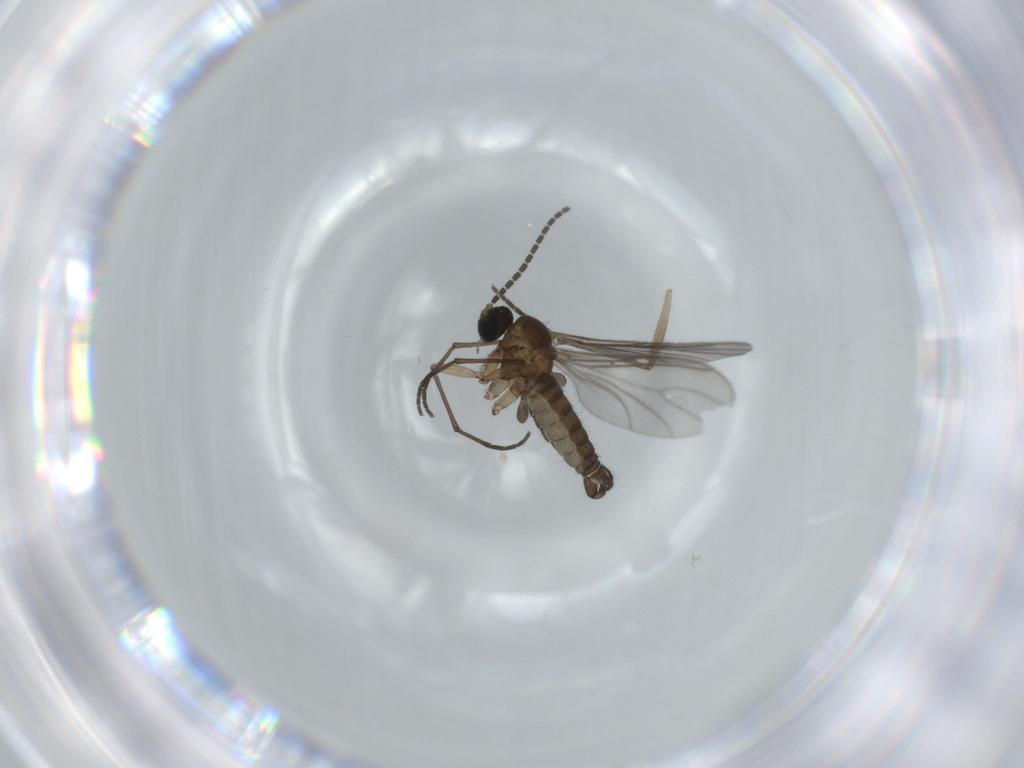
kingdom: Animalia
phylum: Arthropoda
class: Insecta
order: Diptera
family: Sciaridae
